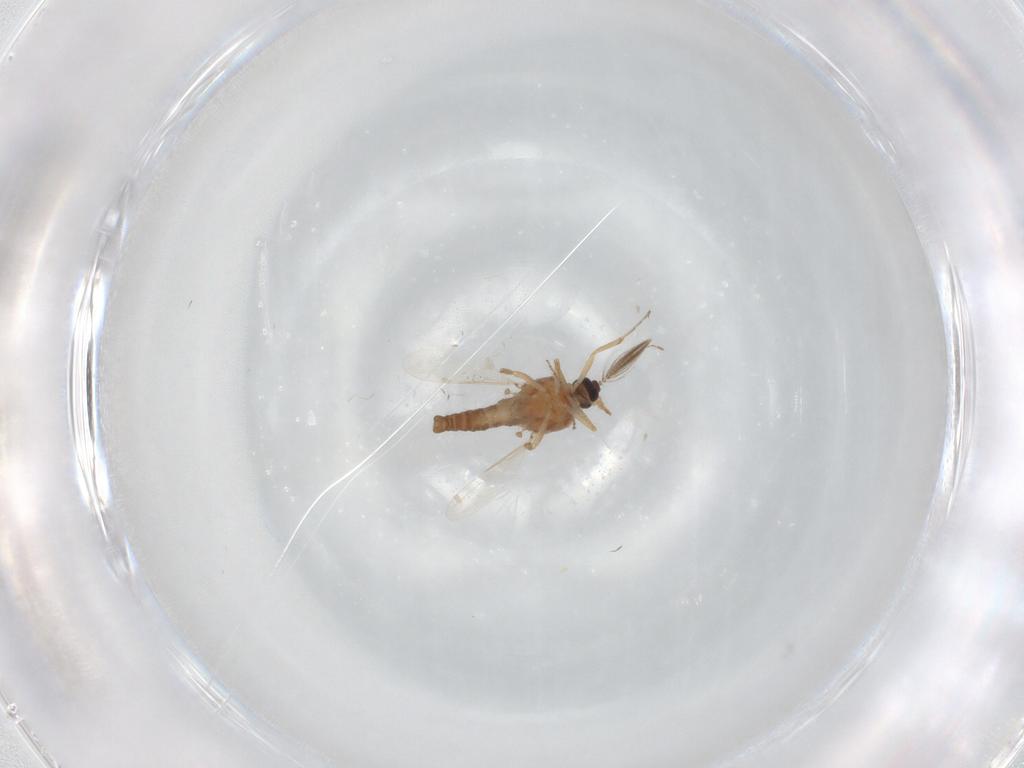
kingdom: Animalia
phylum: Arthropoda
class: Insecta
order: Diptera
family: Ceratopogonidae
